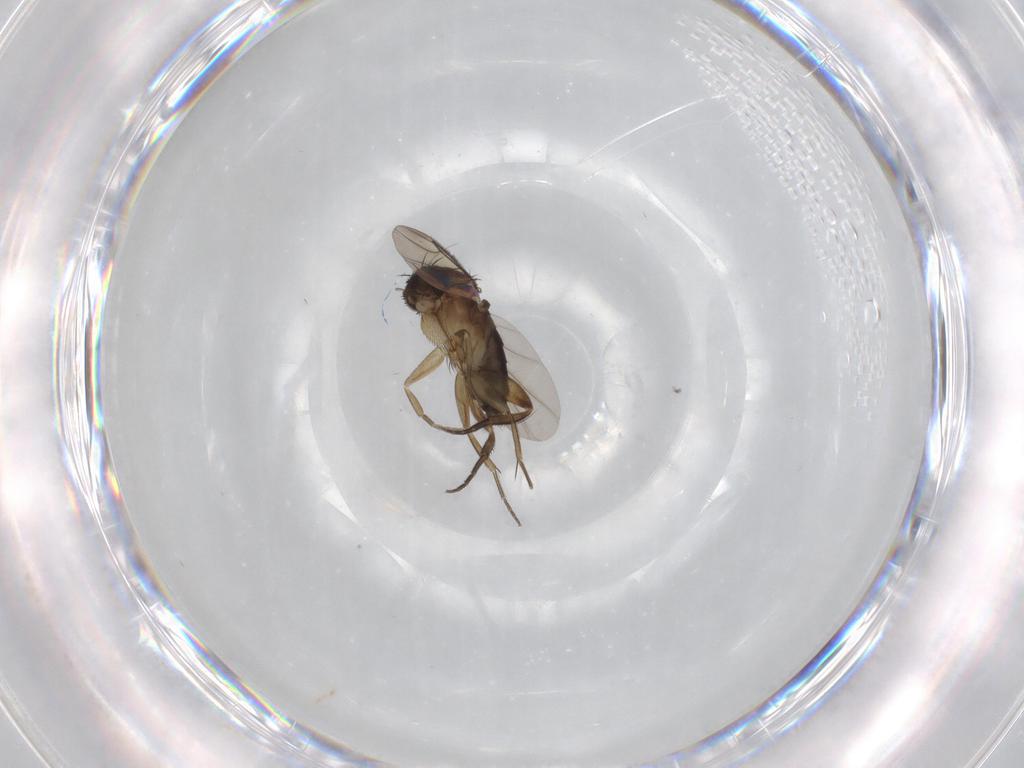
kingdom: Animalia
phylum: Arthropoda
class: Insecta
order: Diptera
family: Phoridae
